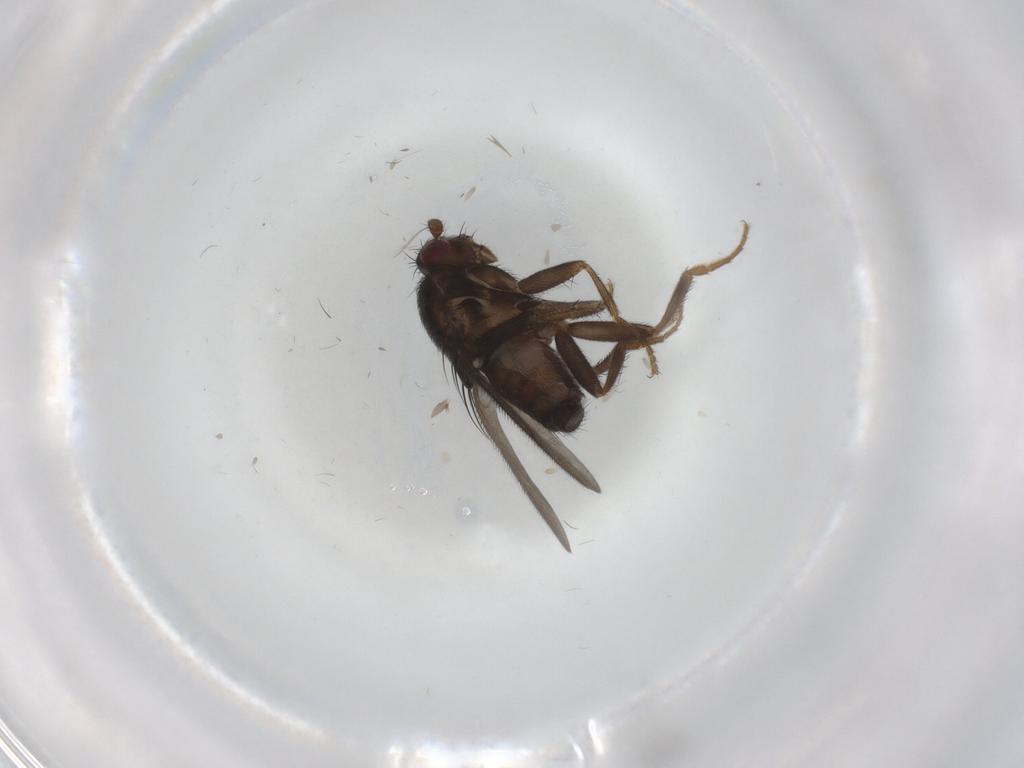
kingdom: Animalia
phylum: Arthropoda
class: Insecta
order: Diptera
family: Sphaeroceridae
